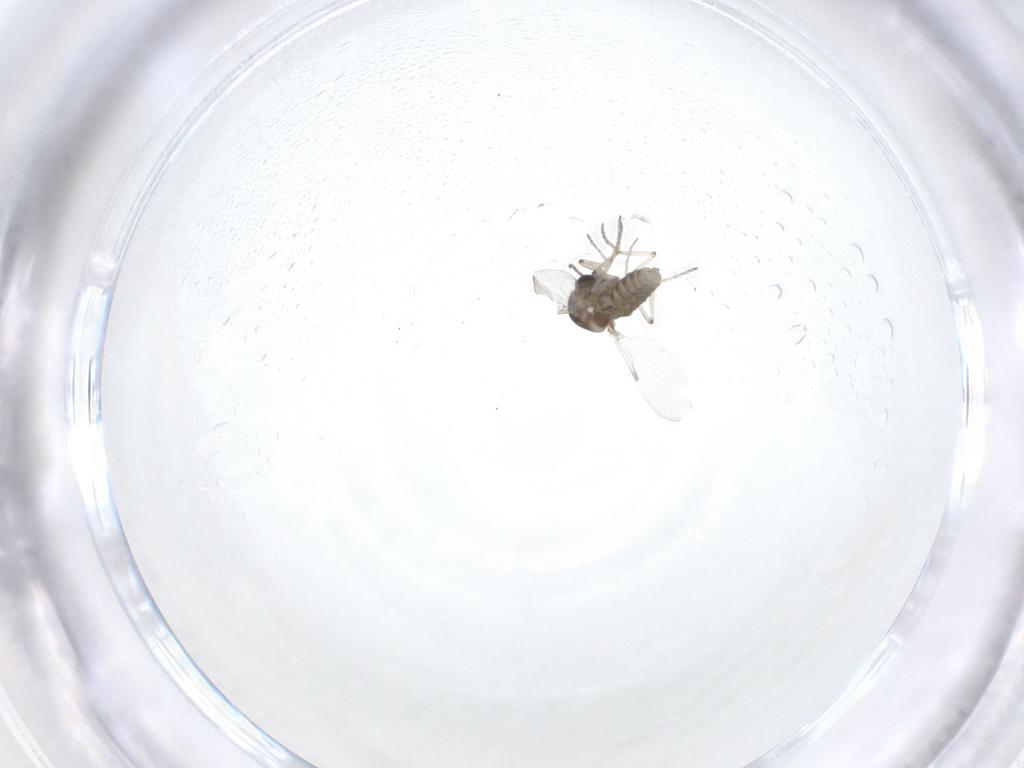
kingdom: Animalia
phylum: Arthropoda
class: Insecta
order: Diptera
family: Ceratopogonidae
